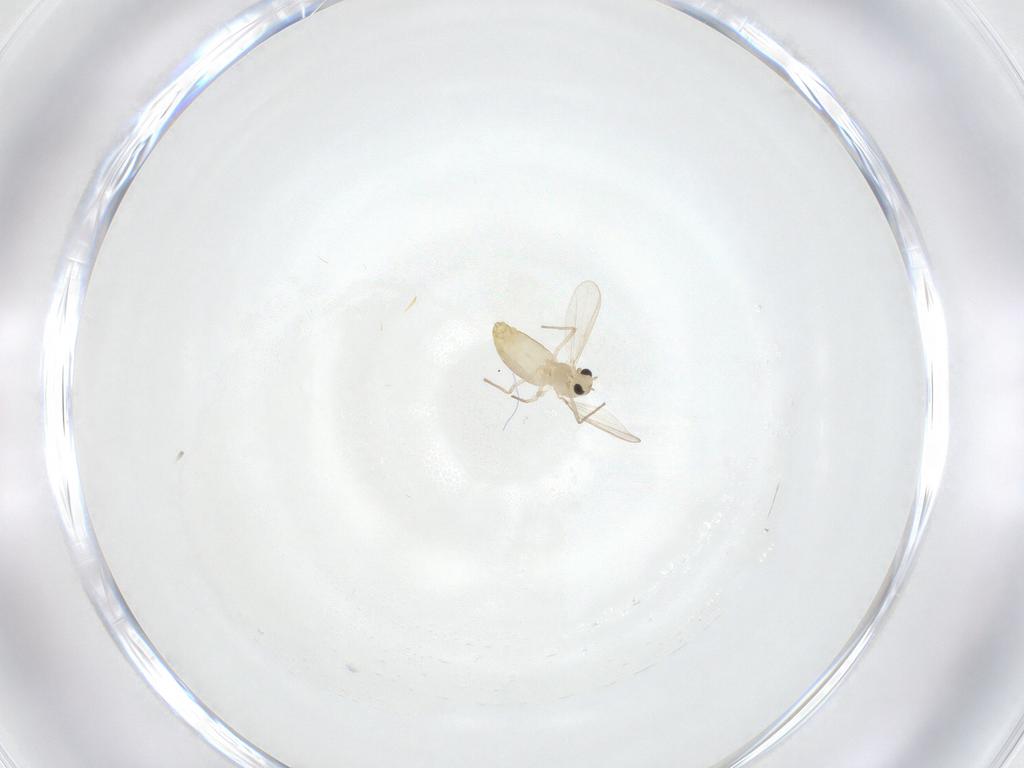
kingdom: Animalia
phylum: Arthropoda
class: Insecta
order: Diptera
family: Chironomidae
